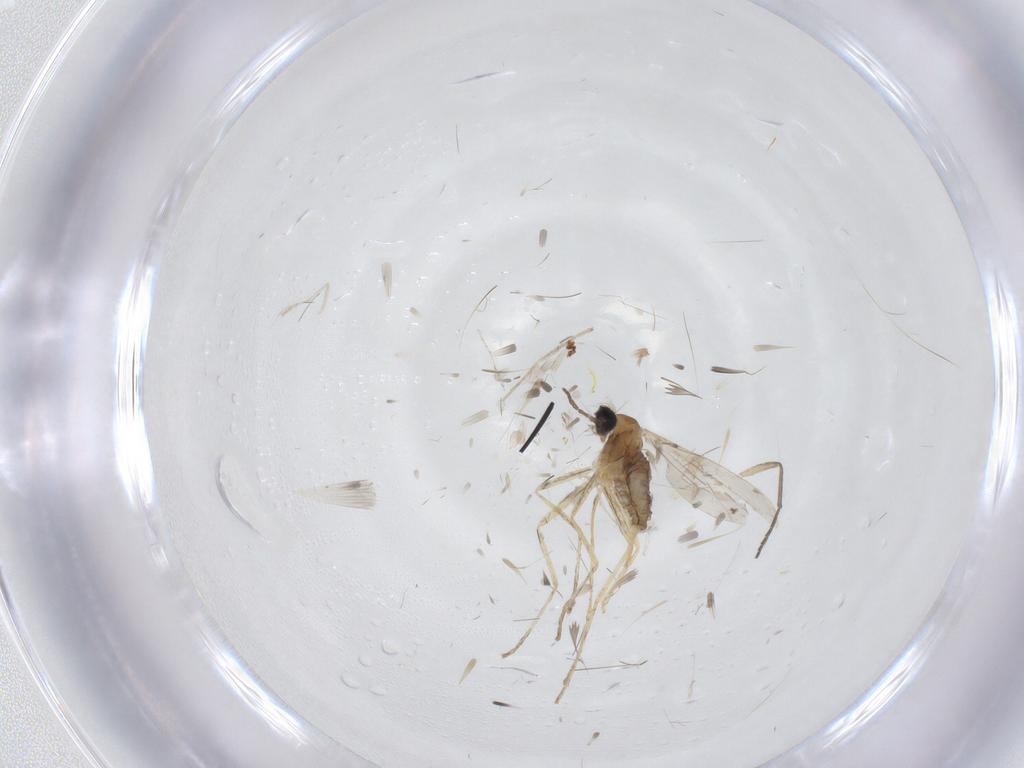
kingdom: Animalia
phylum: Arthropoda
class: Insecta
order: Diptera
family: Cecidomyiidae
